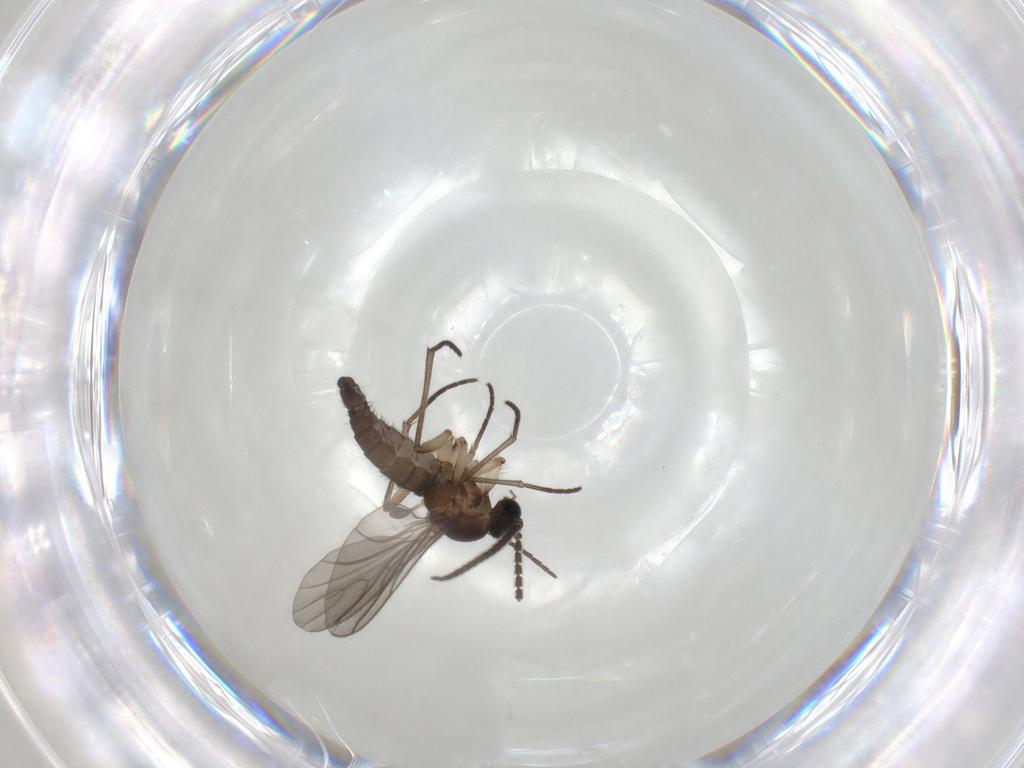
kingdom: Animalia
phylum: Arthropoda
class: Insecta
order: Diptera
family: Sciaridae
